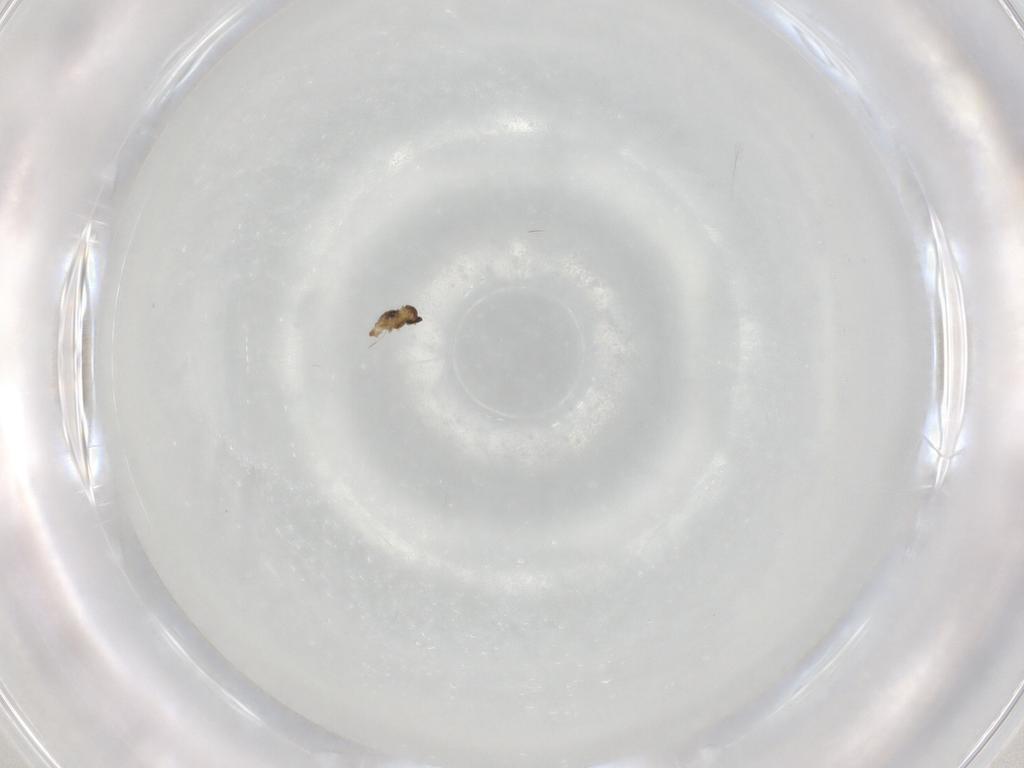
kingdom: Animalia
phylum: Arthropoda
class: Insecta
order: Diptera
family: Cecidomyiidae
